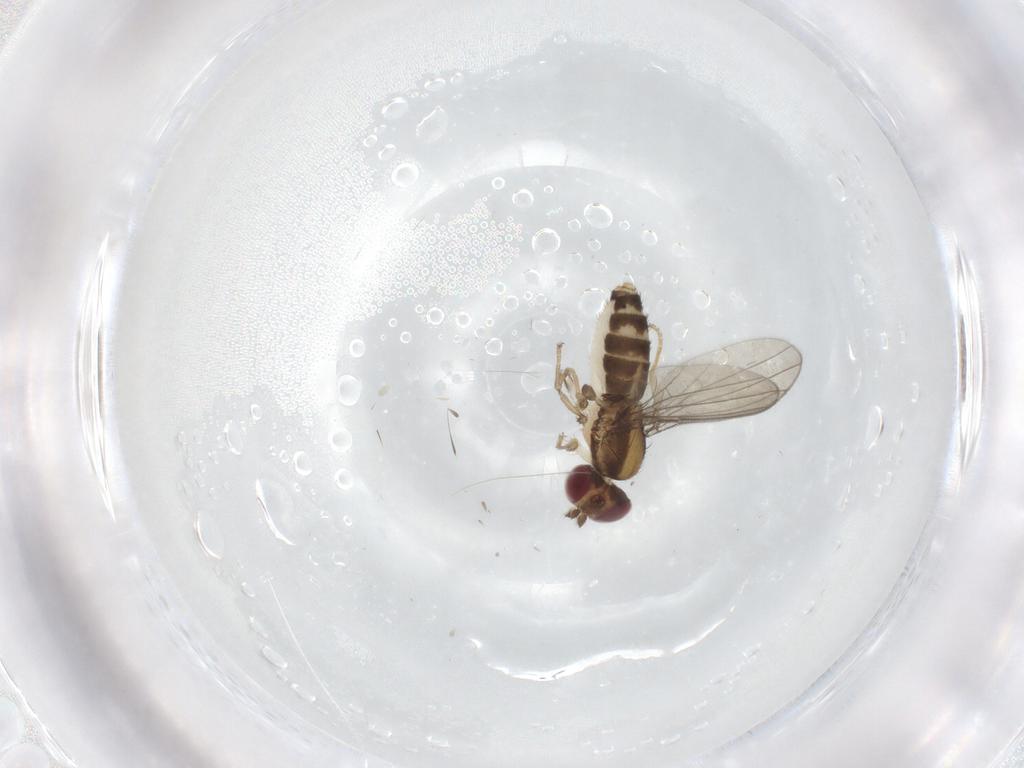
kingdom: Animalia
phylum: Arthropoda
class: Insecta
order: Diptera
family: Anthomyzidae
